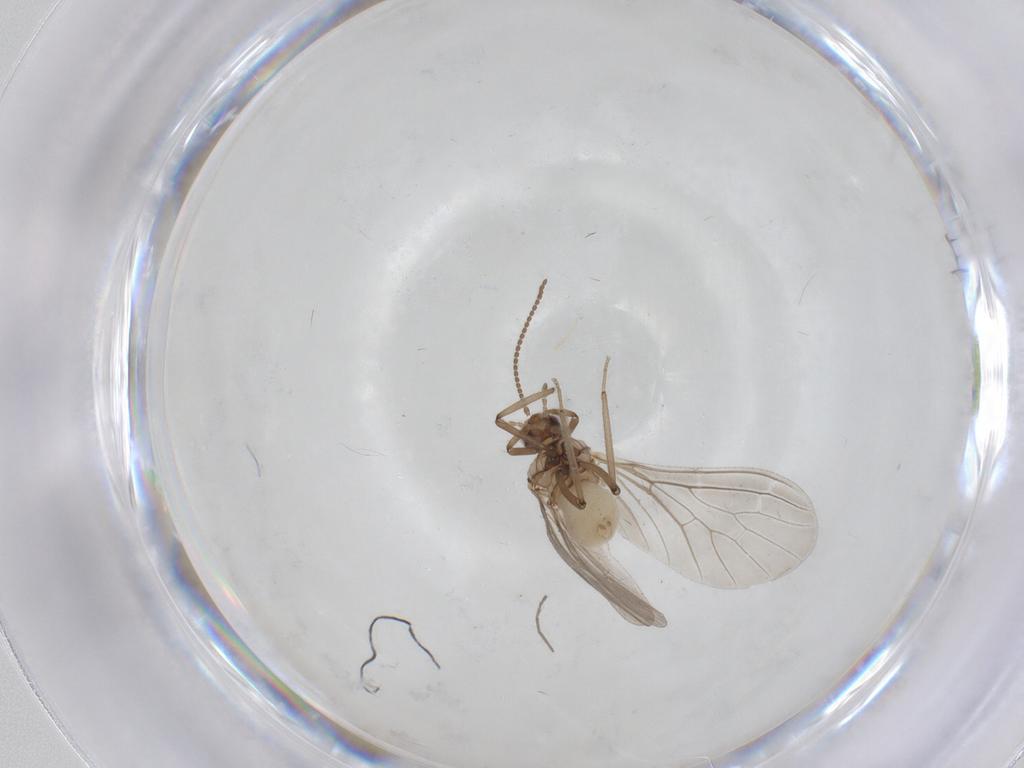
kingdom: Animalia
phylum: Arthropoda
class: Insecta
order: Neuroptera
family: Coniopterygidae
